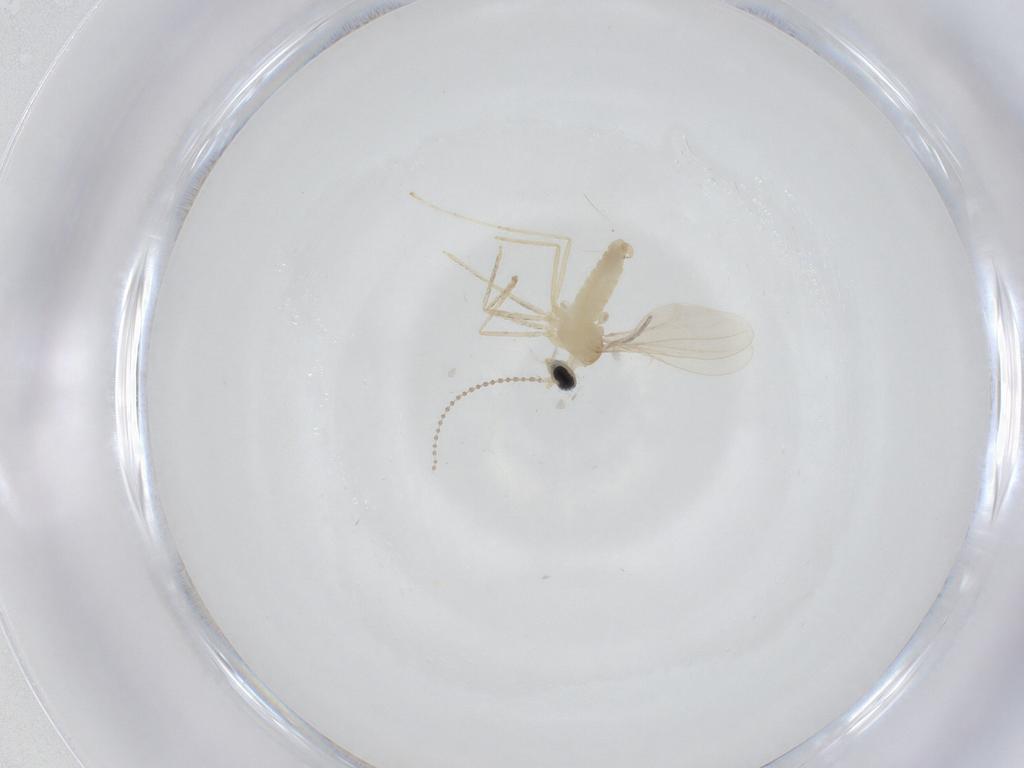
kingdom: Animalia
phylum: Arthropoda
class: Insecta
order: Diptera
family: Cecidomyiidae
